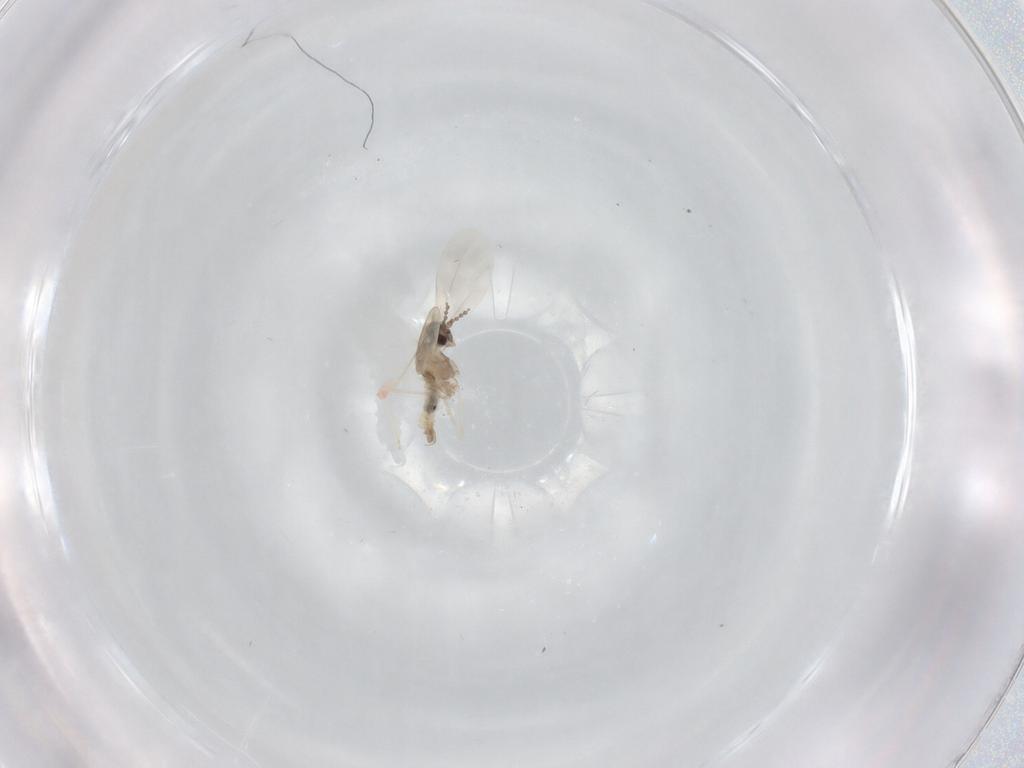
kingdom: Animalia
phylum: Arthropoda
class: Insecta
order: Diptera
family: Cecidomyiidae
